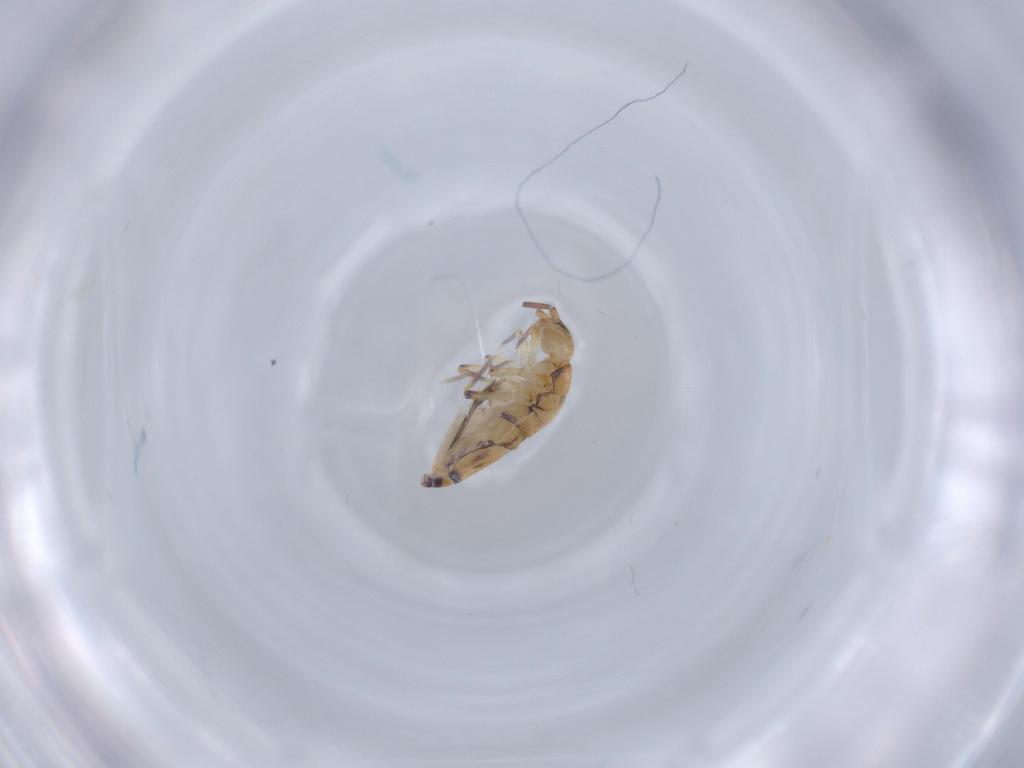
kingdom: Animalia
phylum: Arthropoda
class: Collembola
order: Entomobryomorpha
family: Entomobryidae
